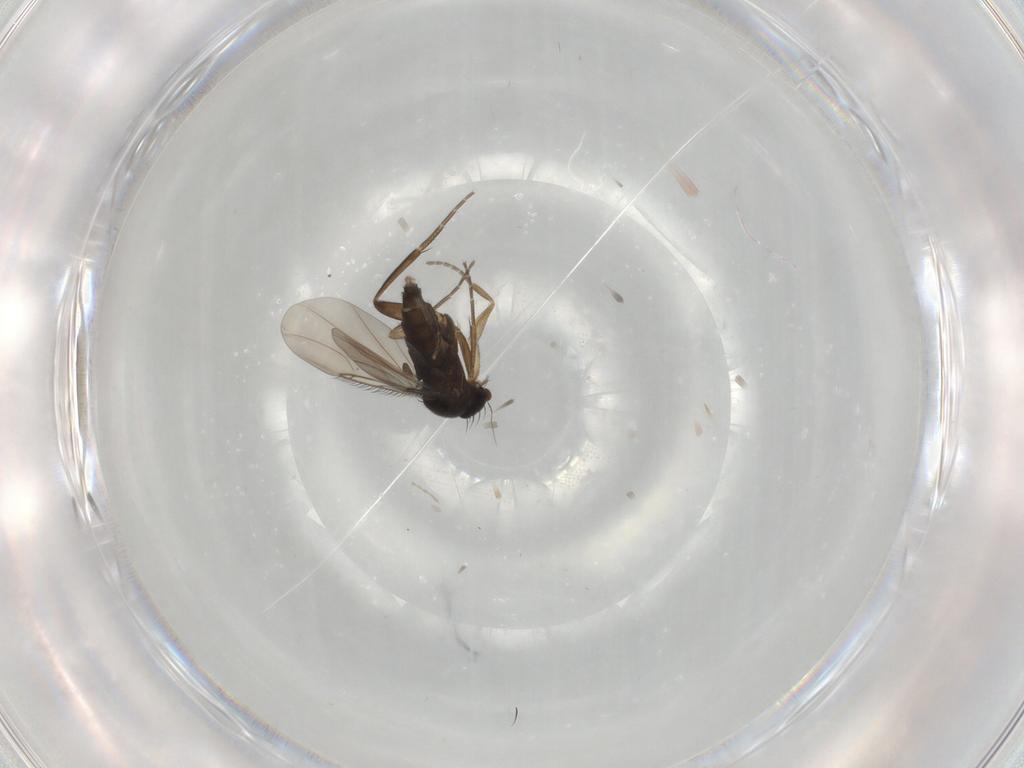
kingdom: Animalia
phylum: Arthropoda
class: Insecta
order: Diptera
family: Phoridae
